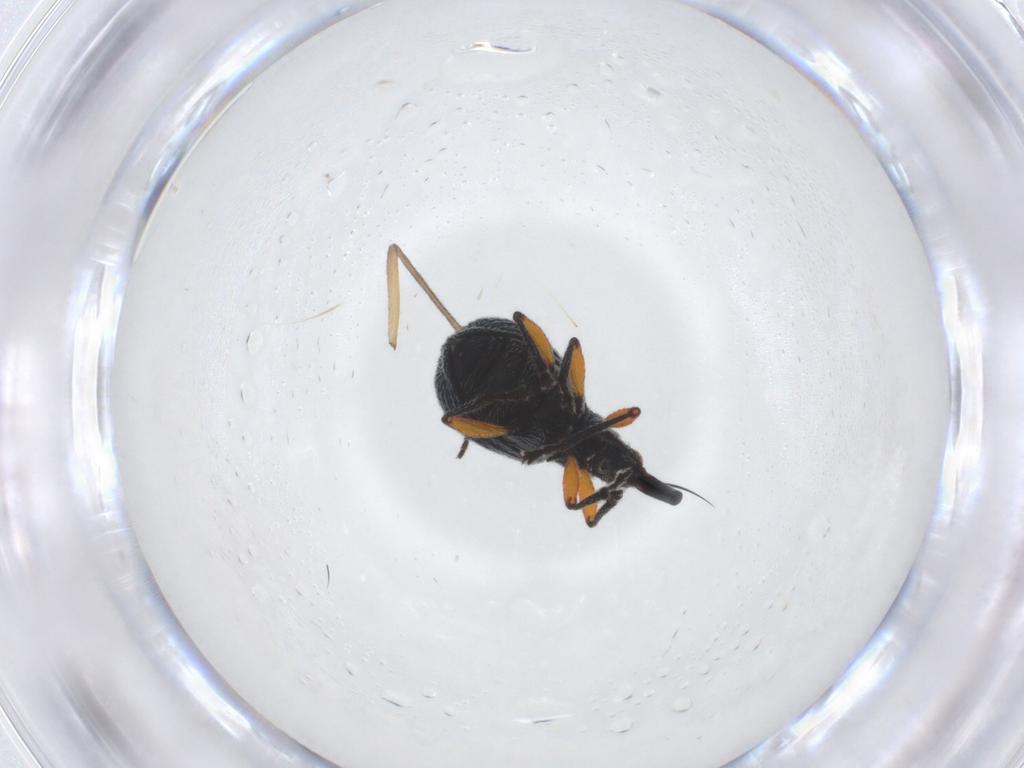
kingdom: Animalia
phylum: Arthropoda
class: Insecta
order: Coleoptera
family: Apionidae
